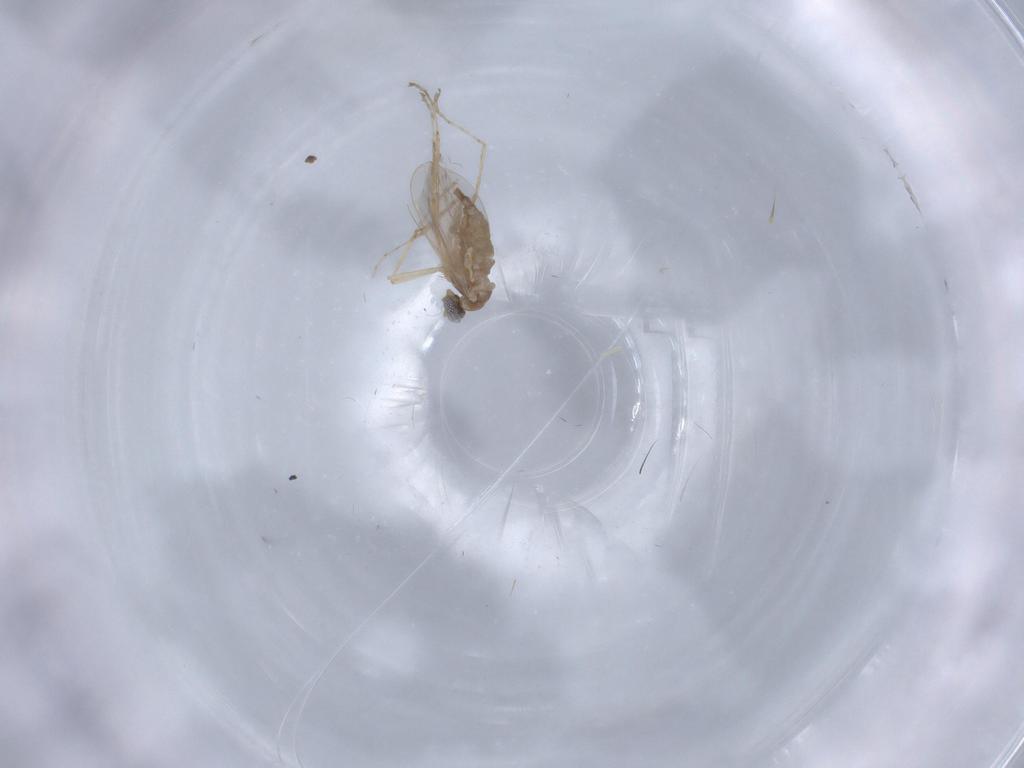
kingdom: Animalia
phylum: Arthropoda
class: Insecta
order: Diptera
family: Cecidomyiidae
